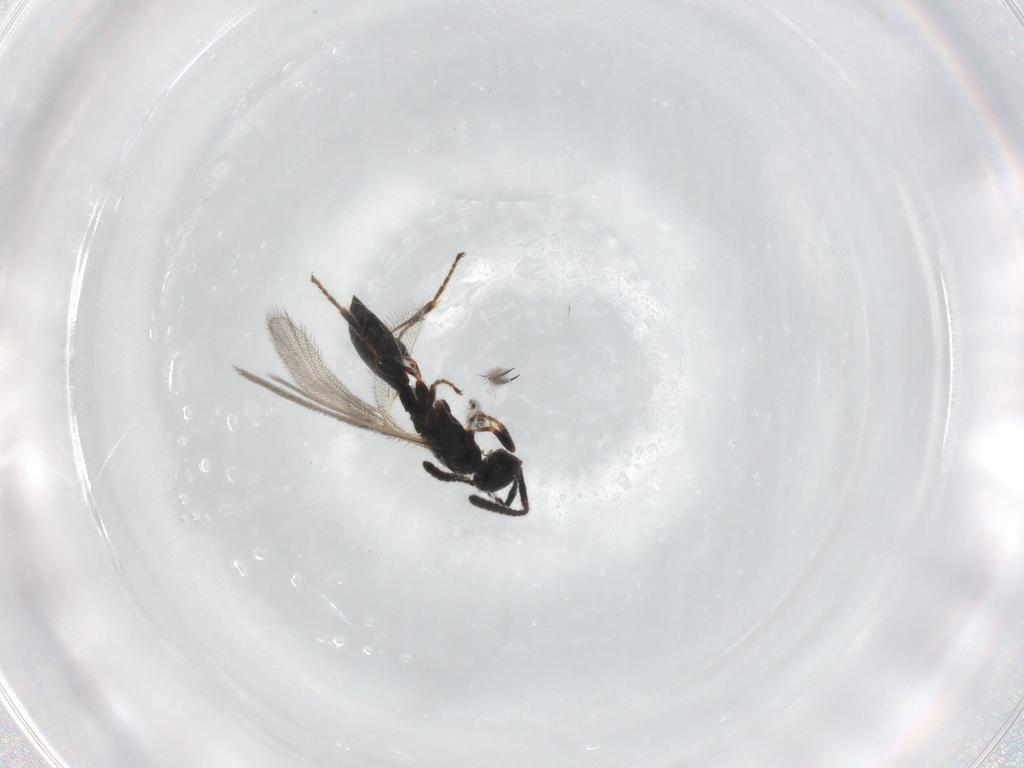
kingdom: Animalia
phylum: Arthropoda
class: Insecta
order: Hymenoptera
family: Diapriidae
